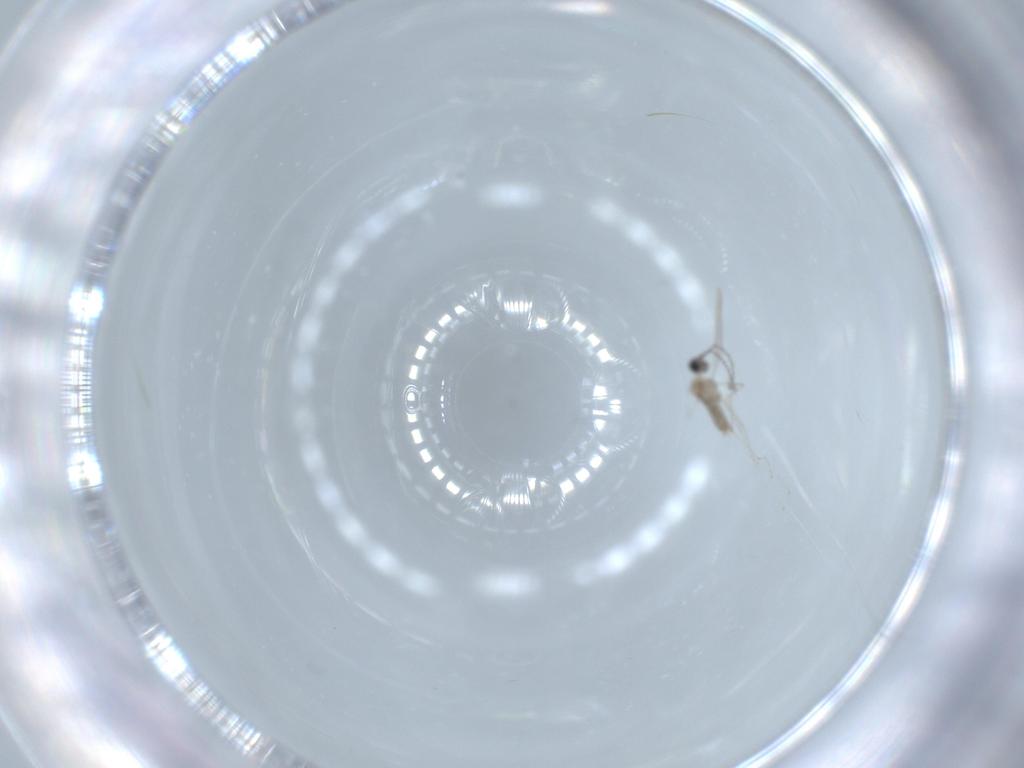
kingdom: Animalia
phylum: Arthropoda
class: Insecta
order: Diptera
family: Cecidomyiidae
